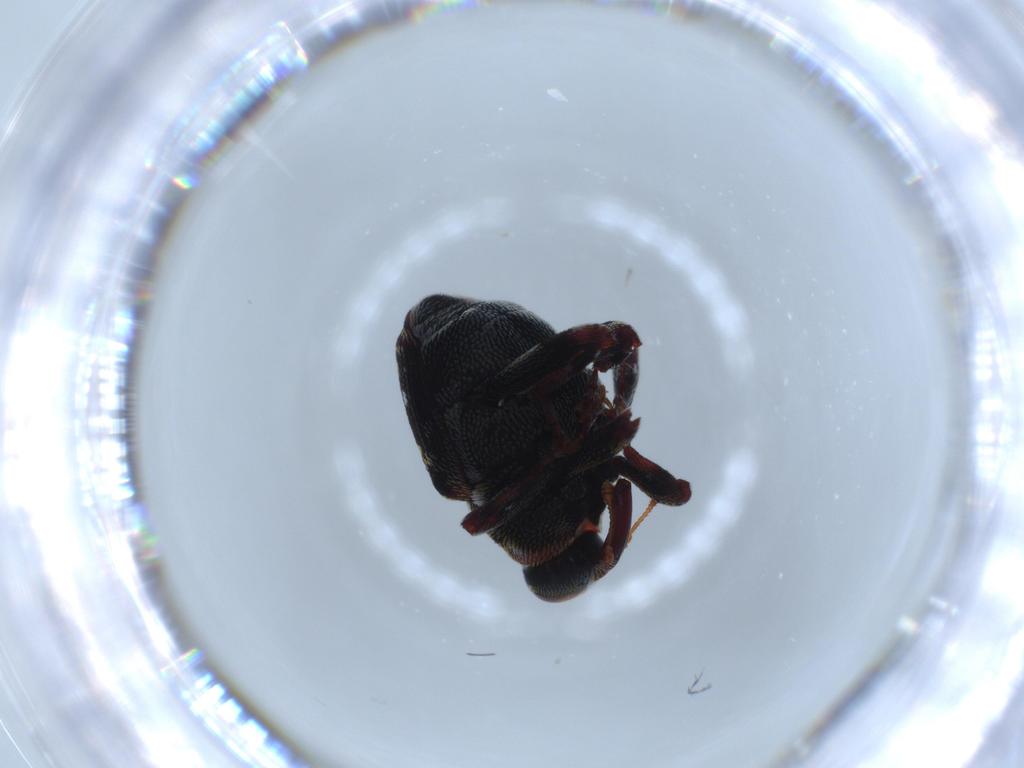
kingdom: Animalia
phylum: Arthropoda
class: Insecta
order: Coleoptera
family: Curculionidae
